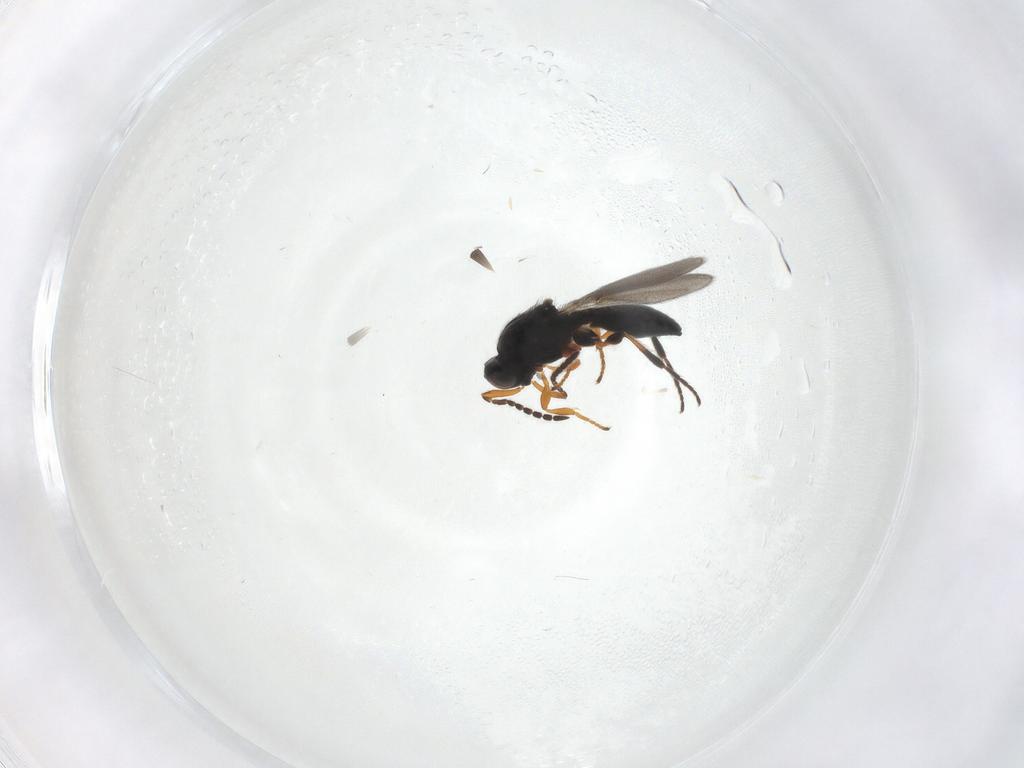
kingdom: Animalia
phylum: Arthropoda
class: Insecta
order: Hymenoptera
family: Platygastridae
